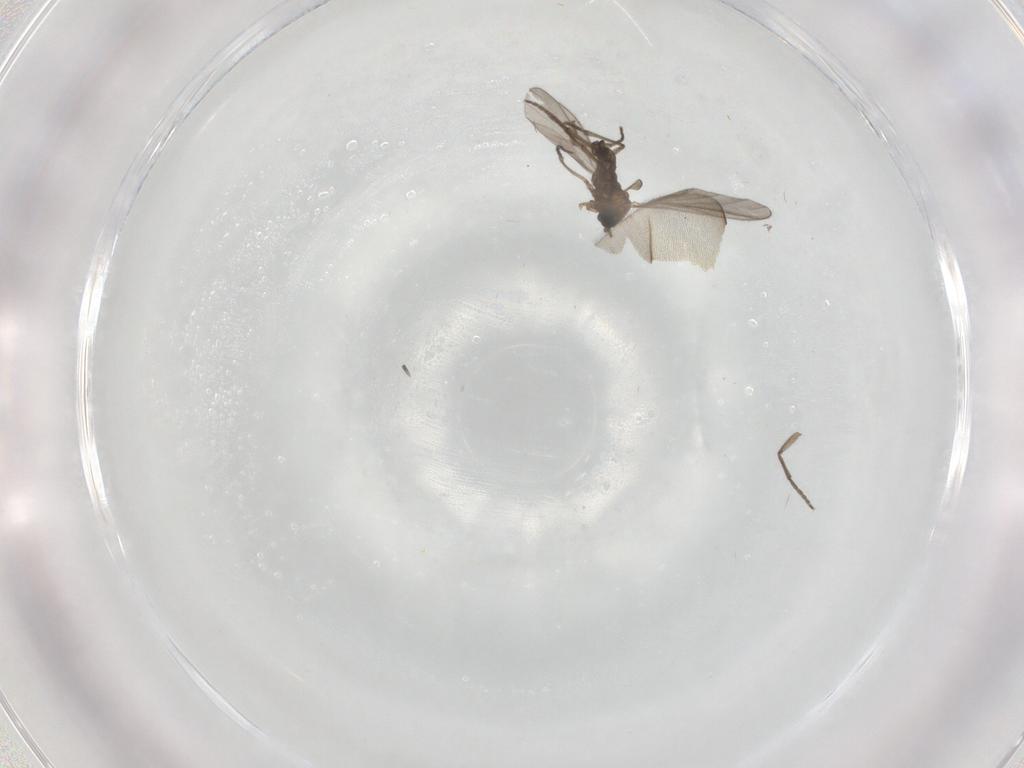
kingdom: Animalia
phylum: Arthropoda
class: Insecta
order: Diptera
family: Sciaridae
